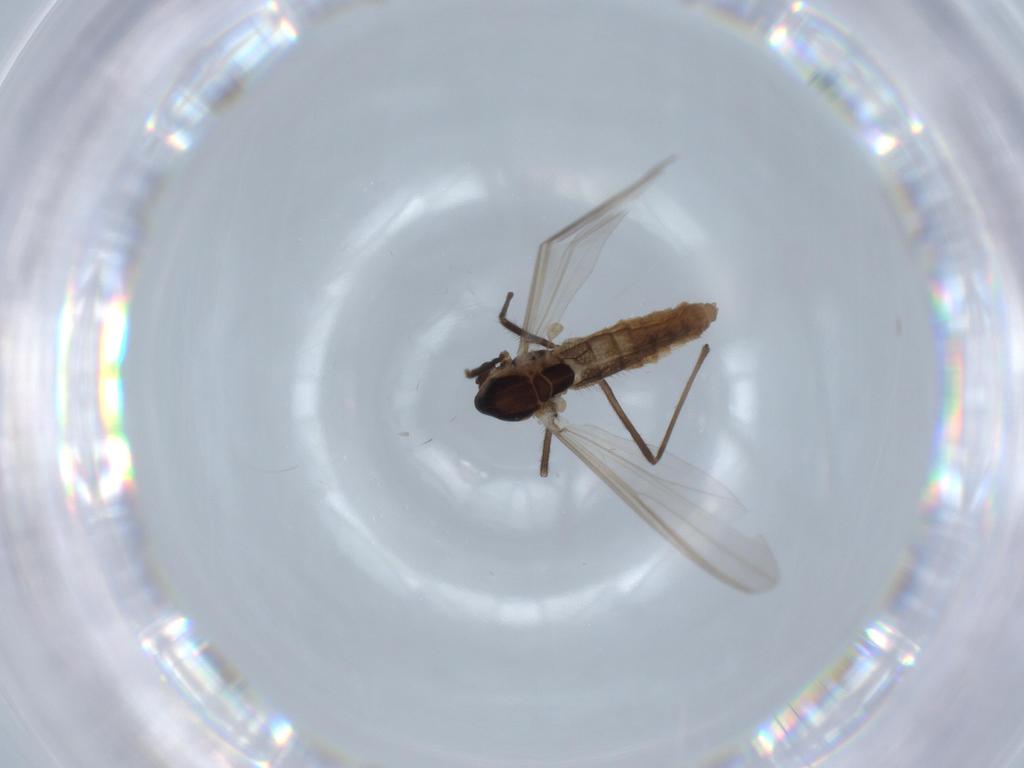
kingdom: Animalia
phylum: Arthropoda
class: Insecta
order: Diptera
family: Chironomidae
